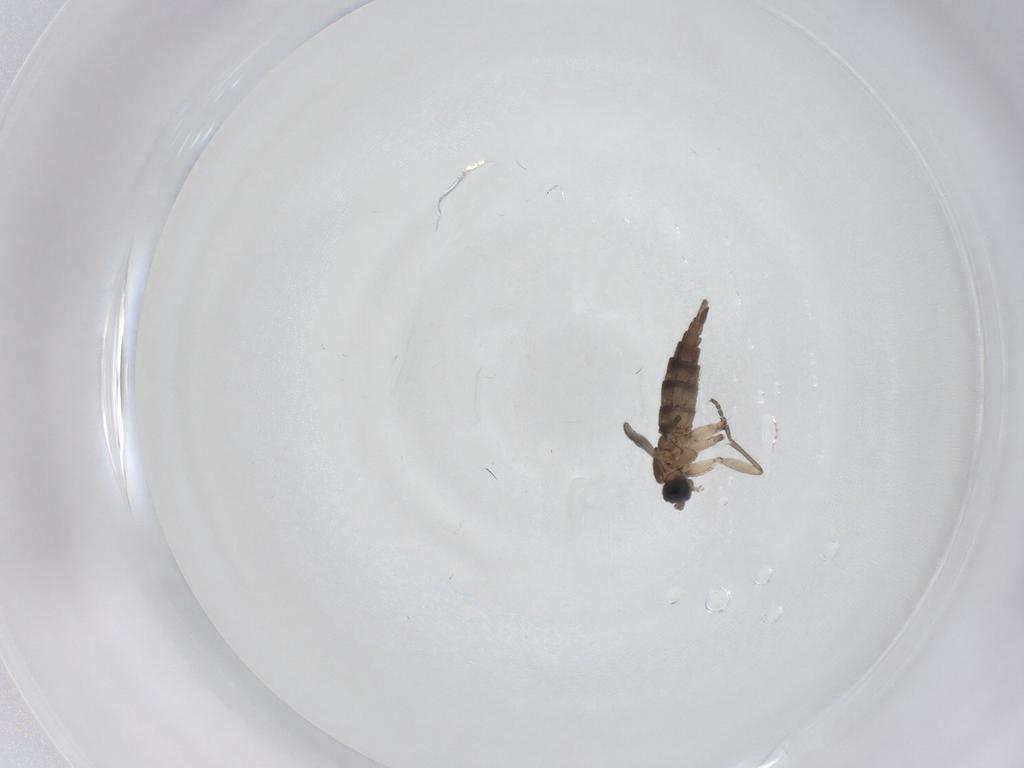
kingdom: Animalia
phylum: Arthropoda
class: Insecta
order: Diptera
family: Sciaridae
